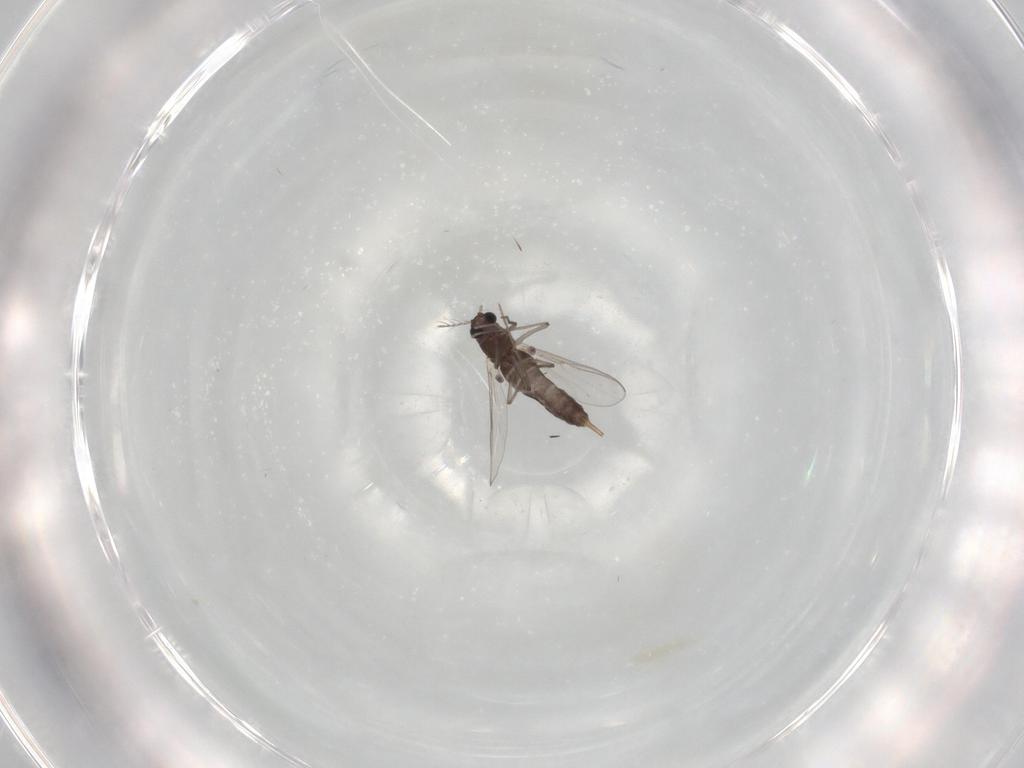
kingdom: Animalia
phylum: Arthropoda
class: Insecta
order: Diptera
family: Chironomidae
